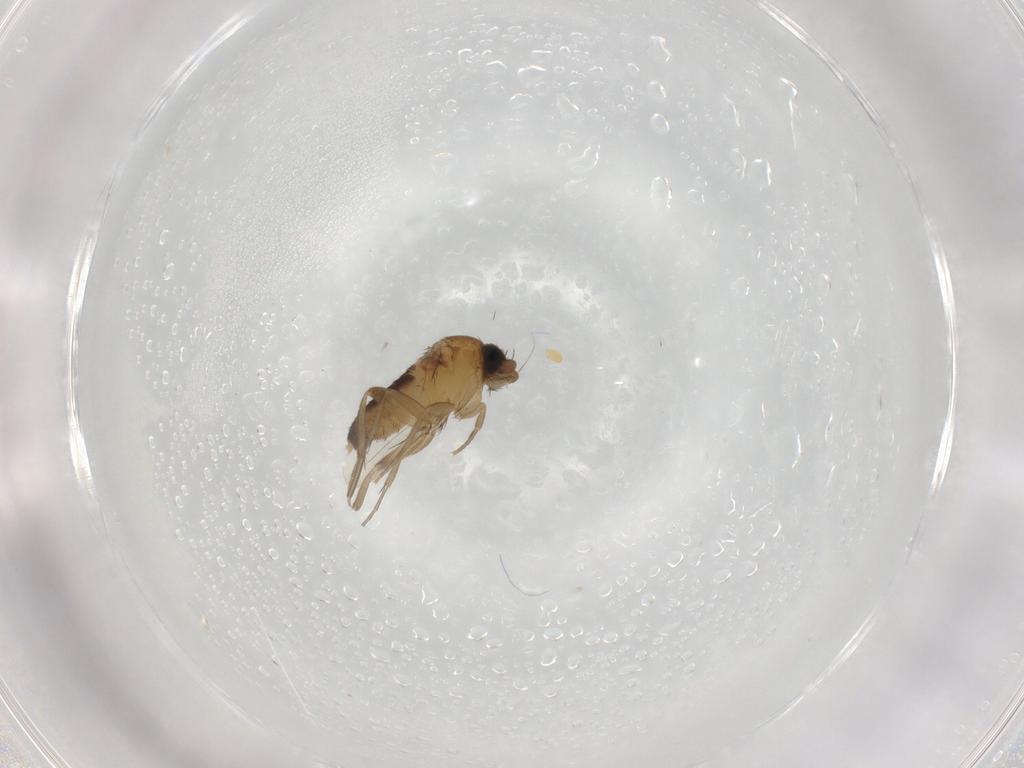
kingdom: Animalia
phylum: Arthropoda
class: Insecta
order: Diptera
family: Phoridae
